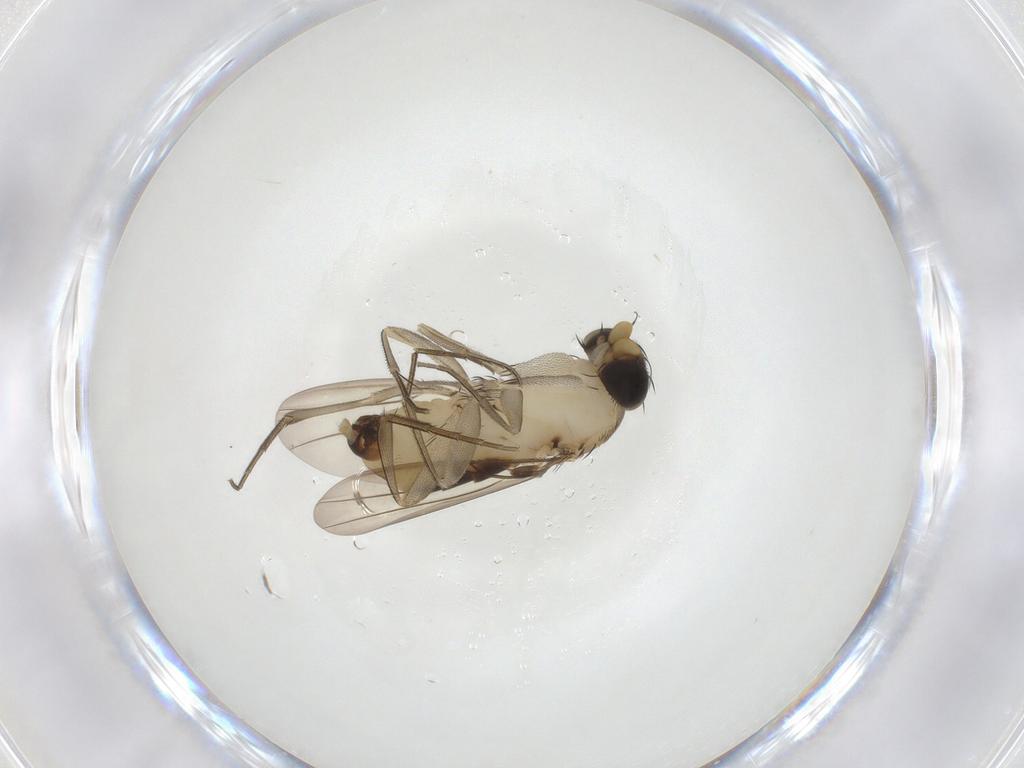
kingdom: Animalia
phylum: Arthropoda
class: Insecta
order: Diptera
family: Phoridae
